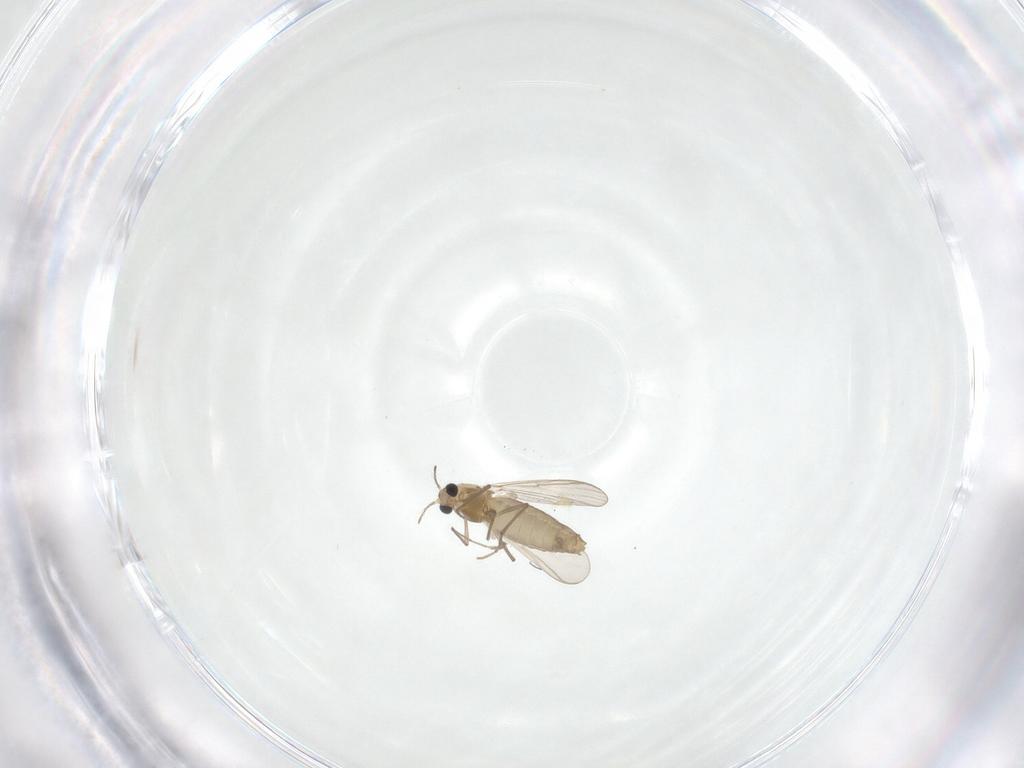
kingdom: Animalia
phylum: Arthropoda
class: Insecta
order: Diptera
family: Chironomidae
